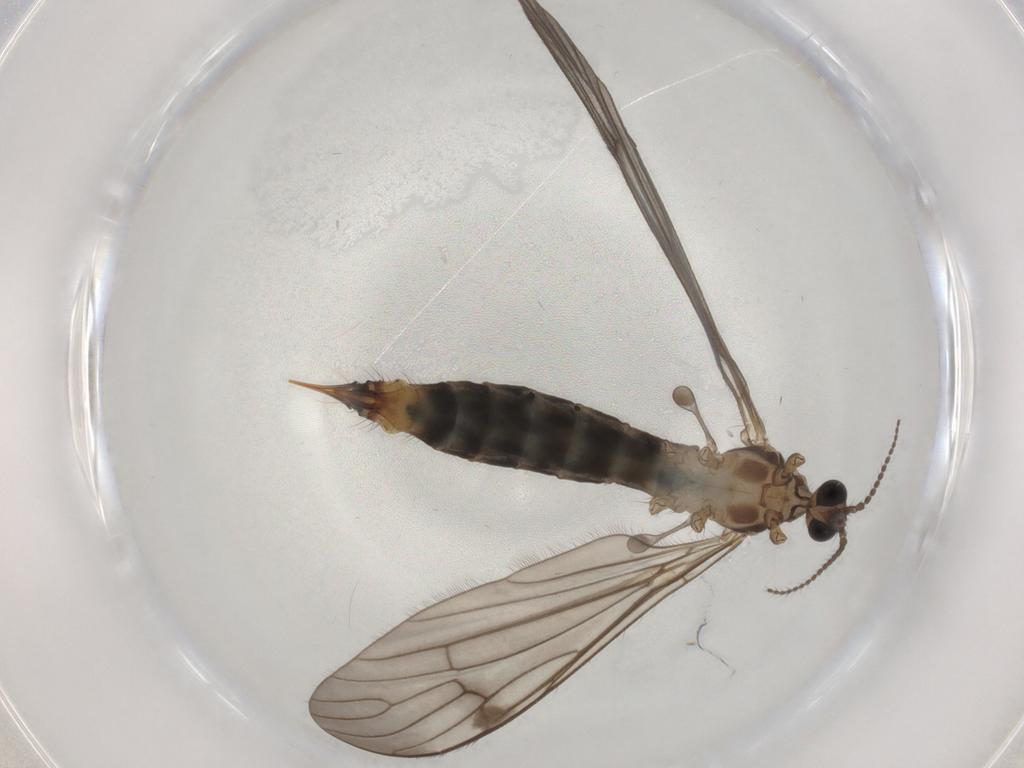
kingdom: Animalia
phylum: Arthropoda
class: Insecta
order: Diptera
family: Limoniidae
